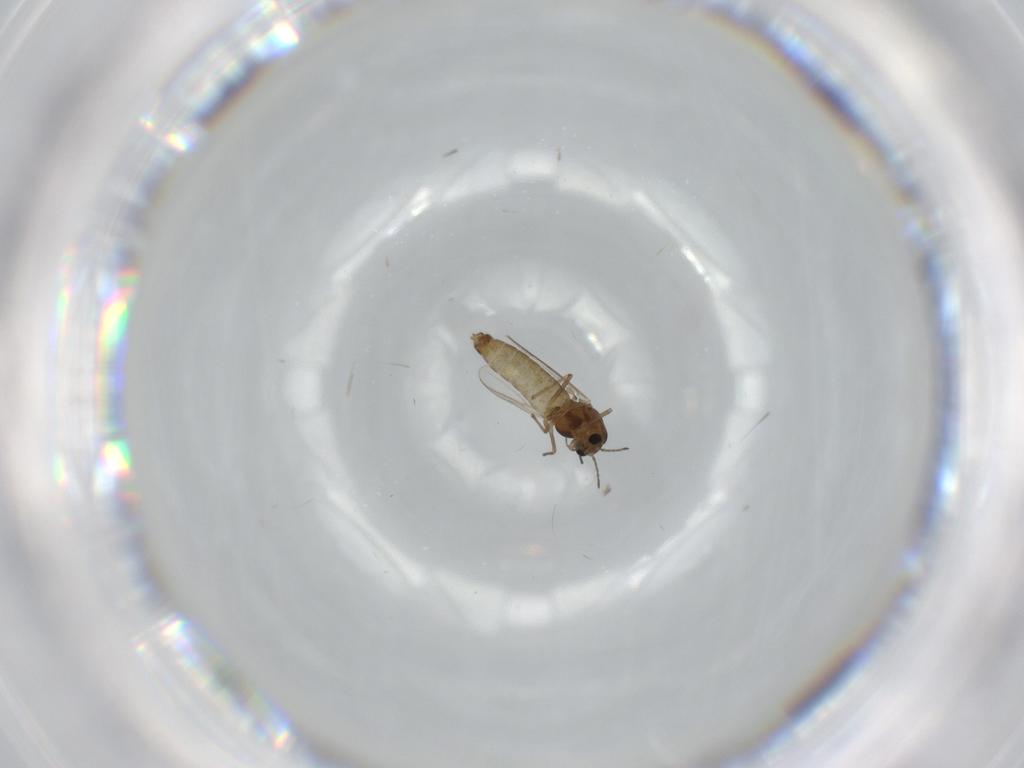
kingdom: Animalia
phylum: Arthropoda
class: Insecta
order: Diptera
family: Chironomidae
